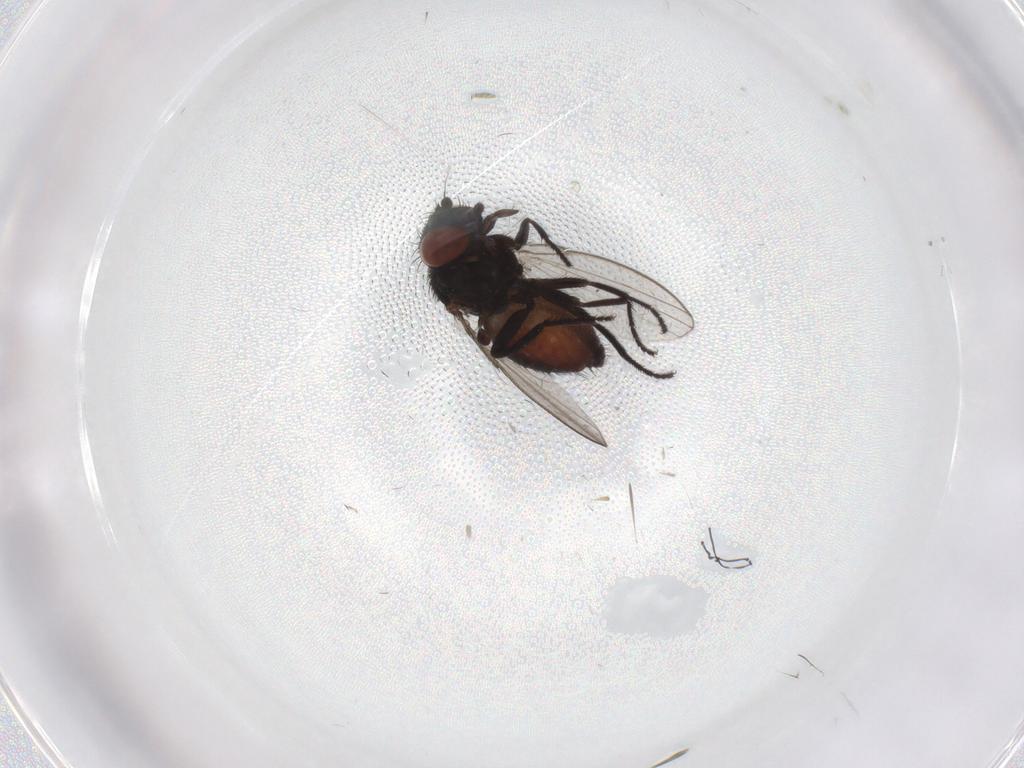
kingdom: Animalia
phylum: Arthropoda
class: Insecta
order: Diptera
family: Milichiidae
